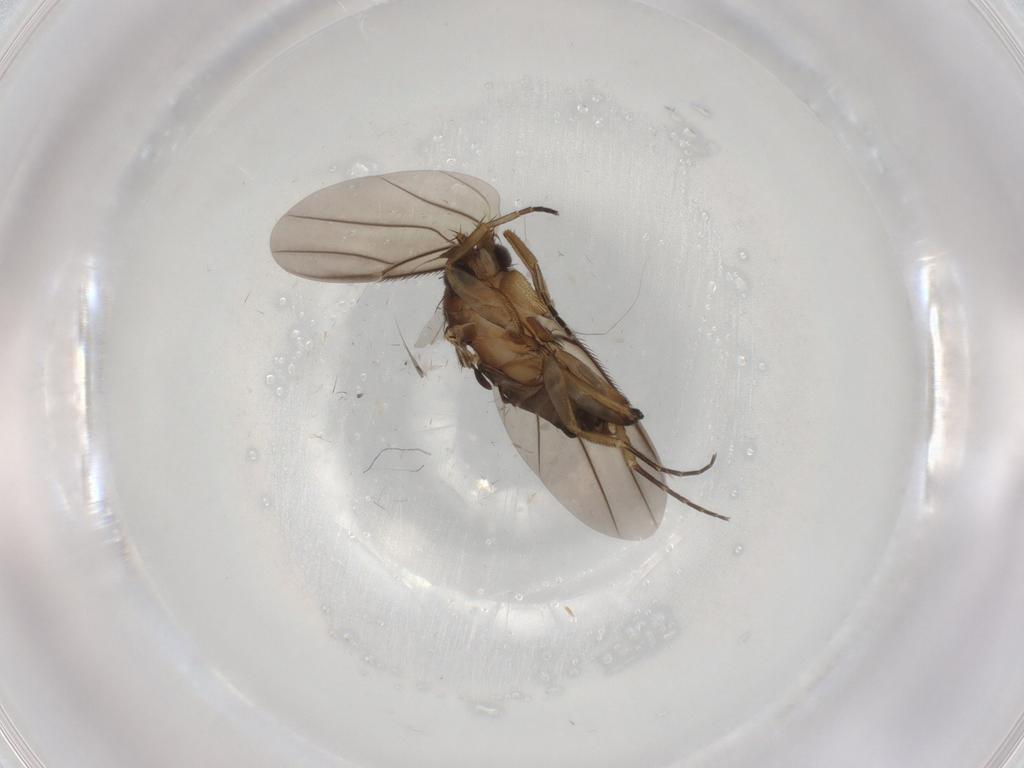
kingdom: Animalia
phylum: Arthropoda
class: Insecta
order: Diptera
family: Phoridae
